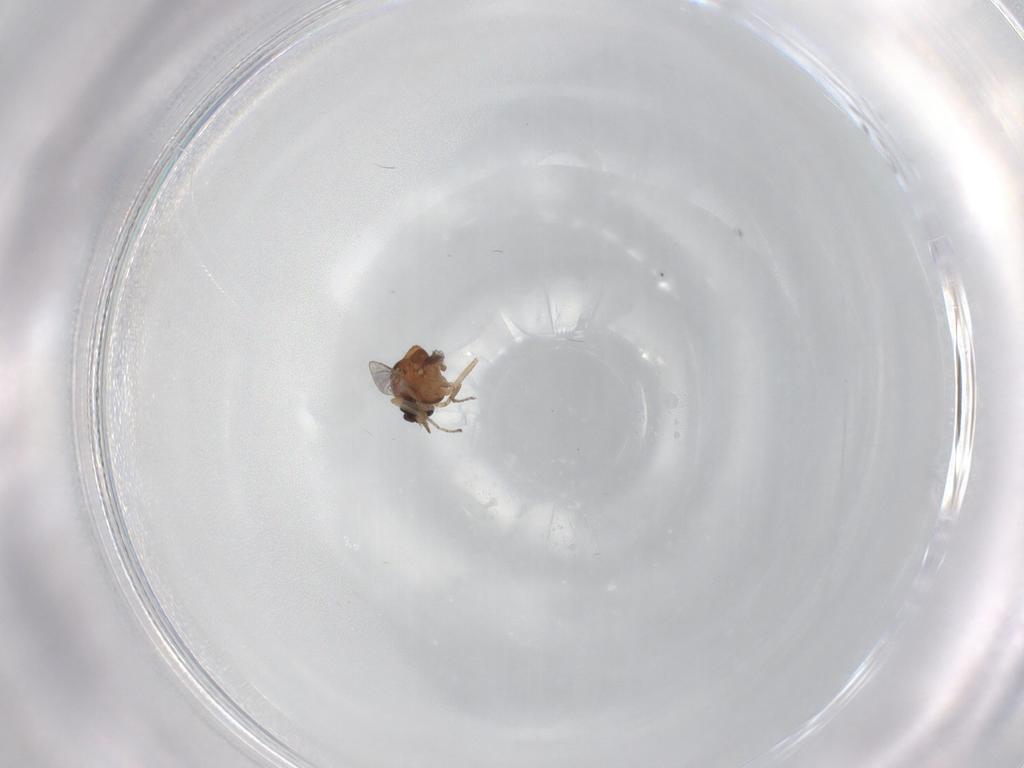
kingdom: Animalia
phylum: Arthropoda
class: Insecta
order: Diptera
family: Ceratopogonidae
